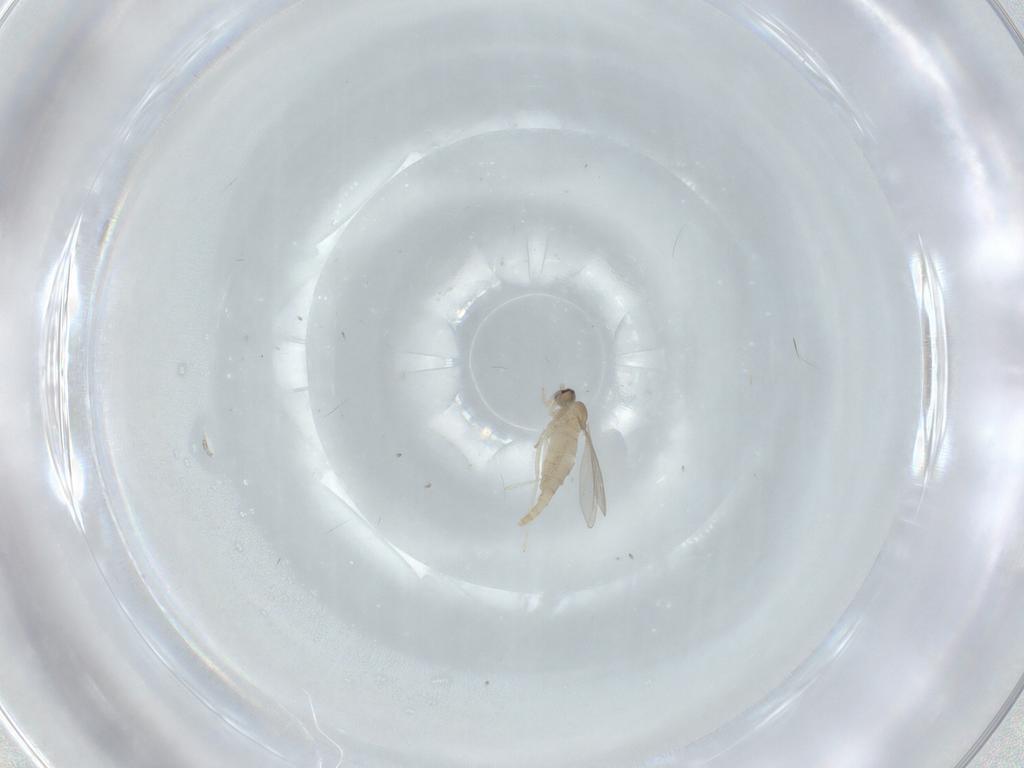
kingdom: Animalia
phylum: Arthropoda
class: Insecta
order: Diptera
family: Cecidomyiidae
